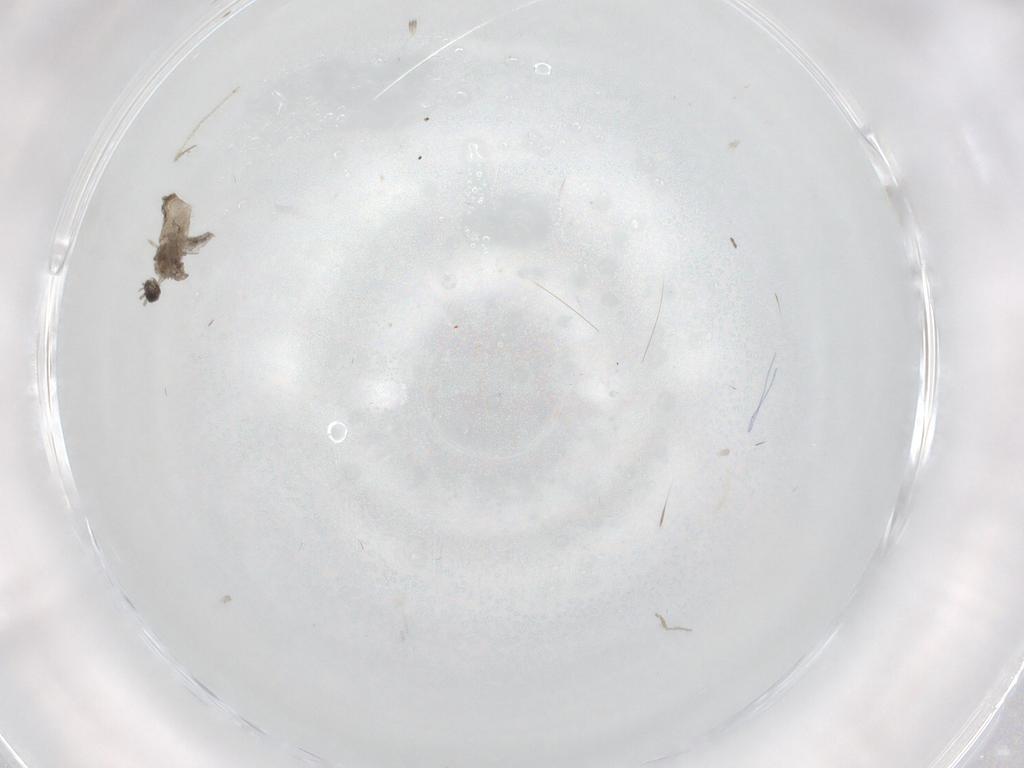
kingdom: Animalia
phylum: Arthropoda
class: Insecta
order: Diptera
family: Cecidomyiidae
